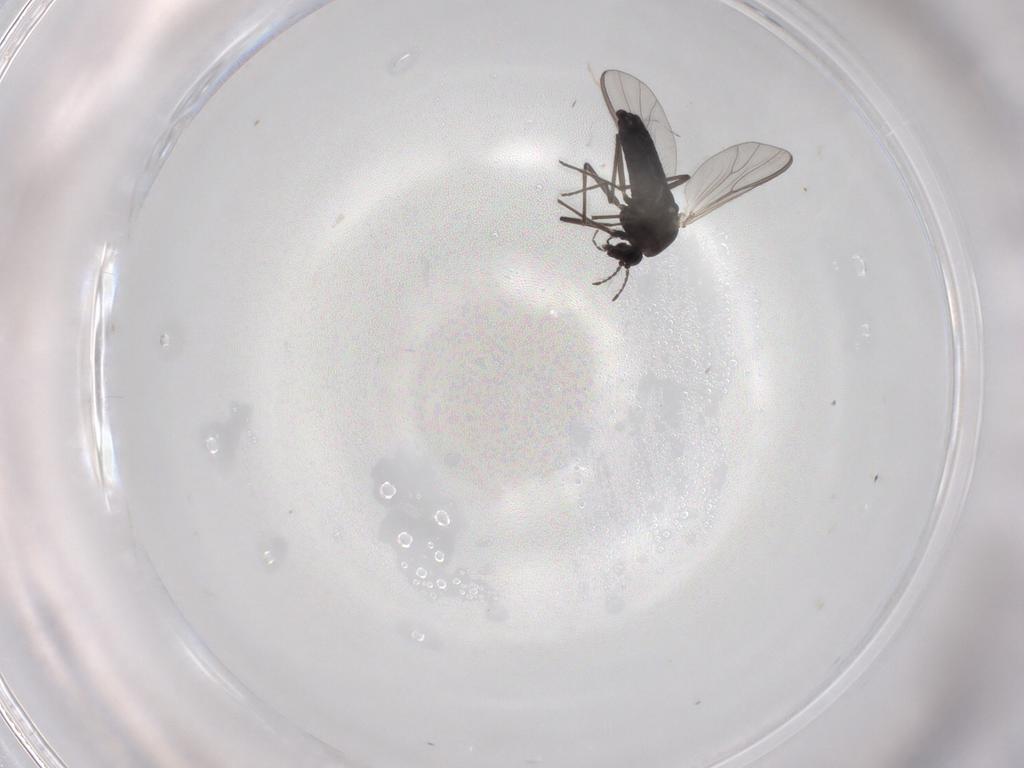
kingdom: Animalia
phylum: Arthropoda
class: Insecta
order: Diptera
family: Chironomidae
